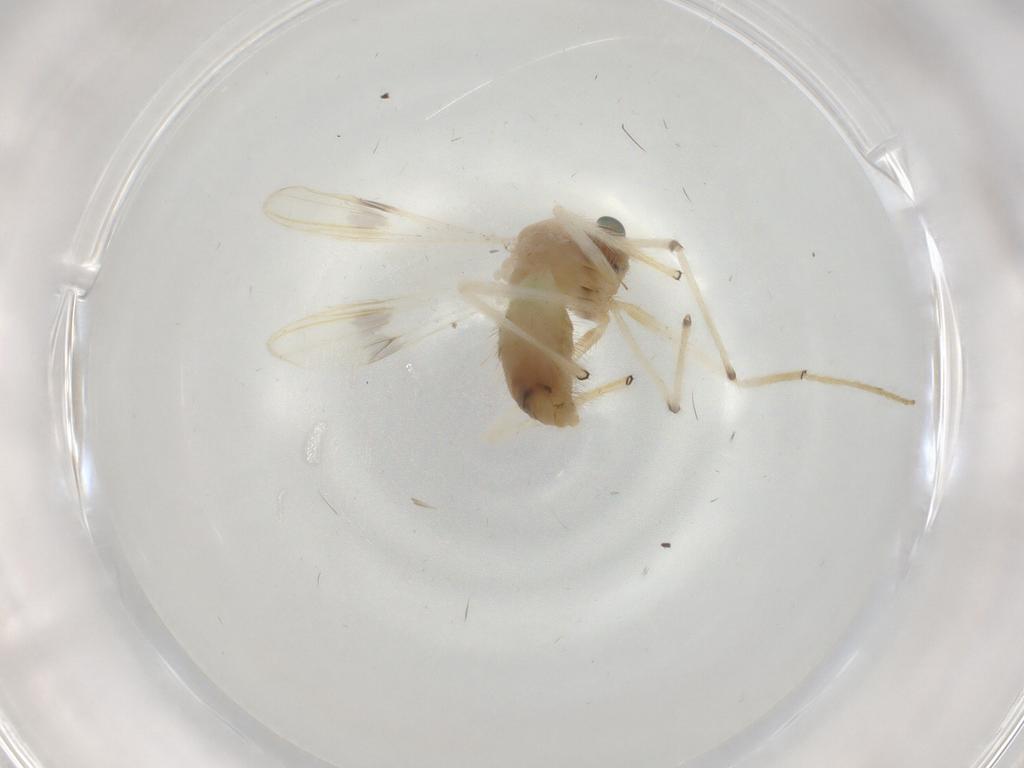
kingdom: Animalia
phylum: Arthropoda
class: Insecta
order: Diptera
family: Chironomidae
